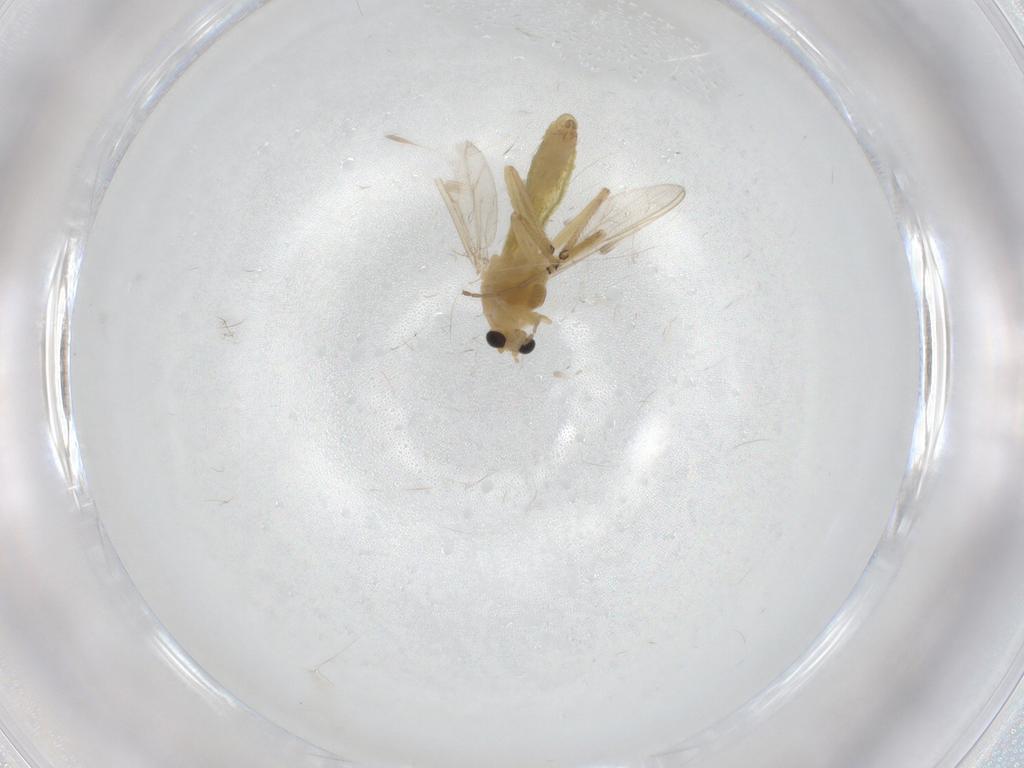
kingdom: Animalia
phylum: Arthropoda
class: Insecta
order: Diptera
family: Chironomidae
